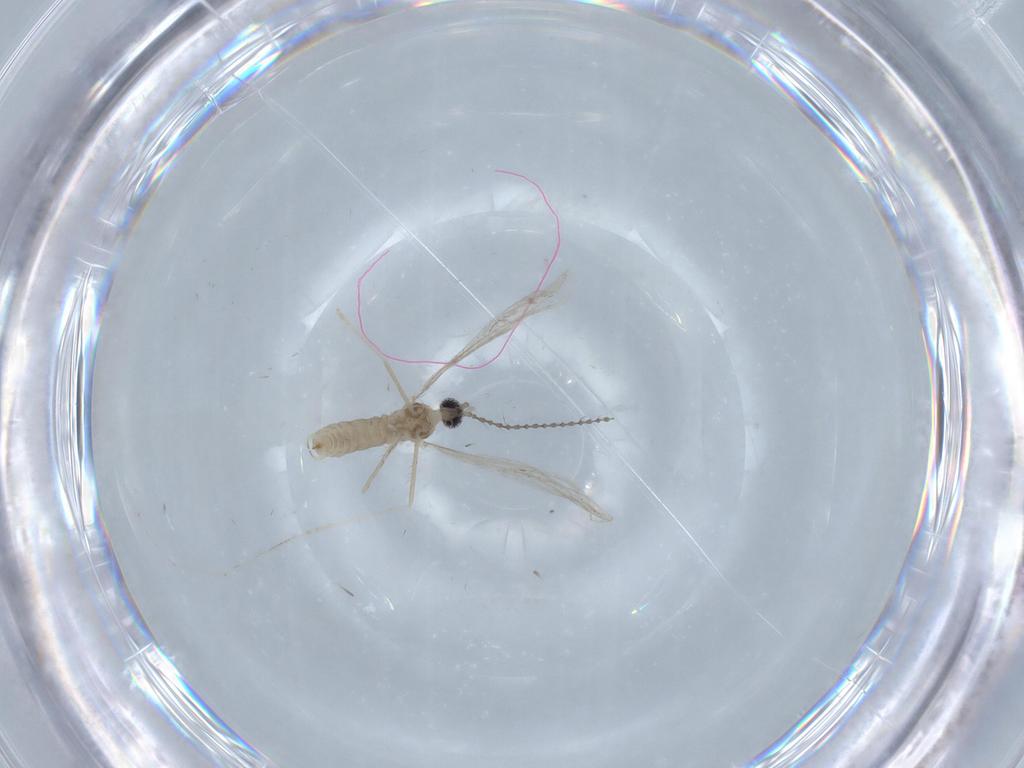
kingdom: Animalia
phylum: Arthropoda
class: Insecta
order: Diptera
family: Cecidomyiidae
